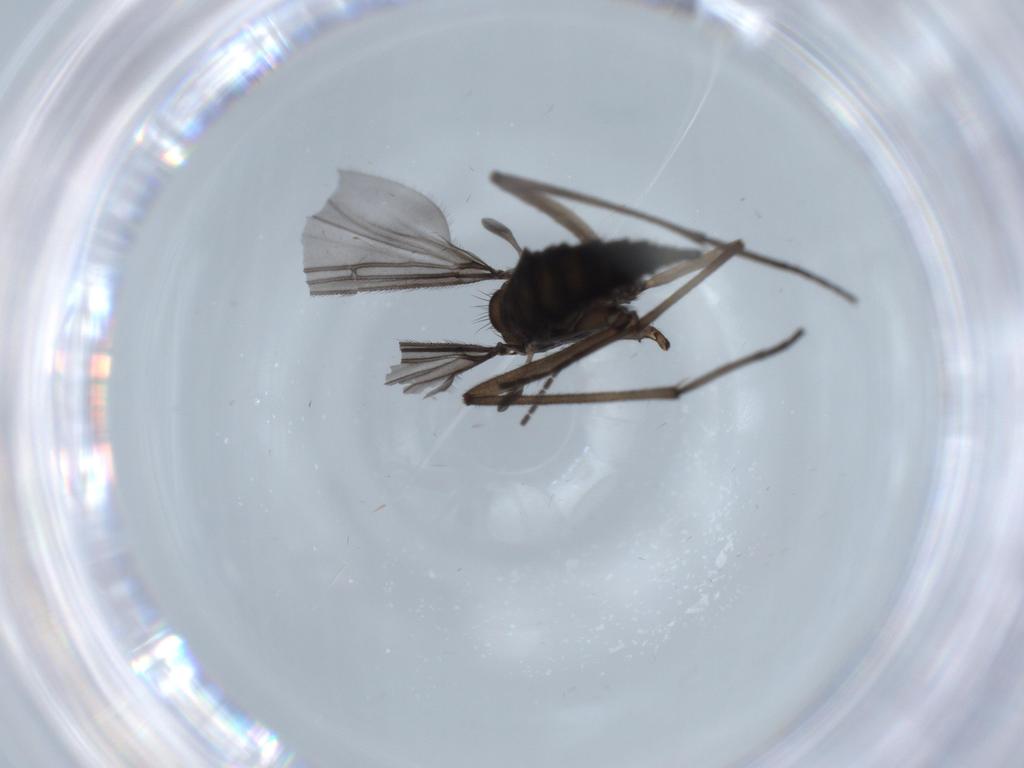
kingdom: Animalia
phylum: Arthropoda
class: Insecta
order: Diptera
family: Sciaridae
